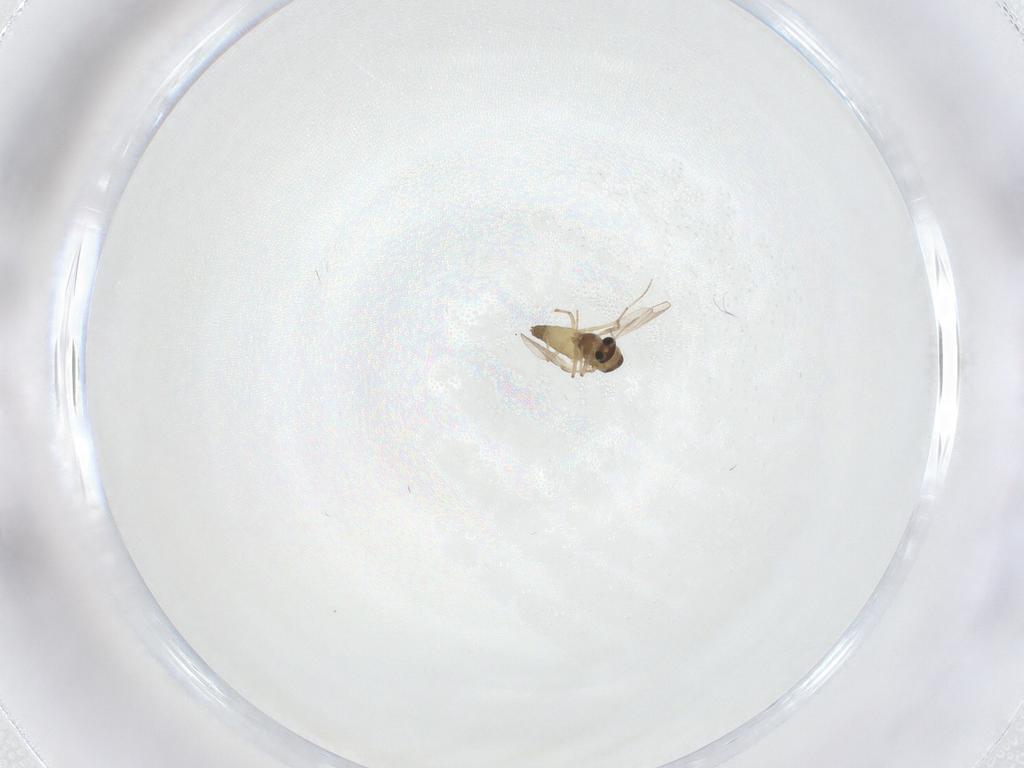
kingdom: Animalia
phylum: Arthropoda
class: Insecta
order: Diptera
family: Chironomidae
